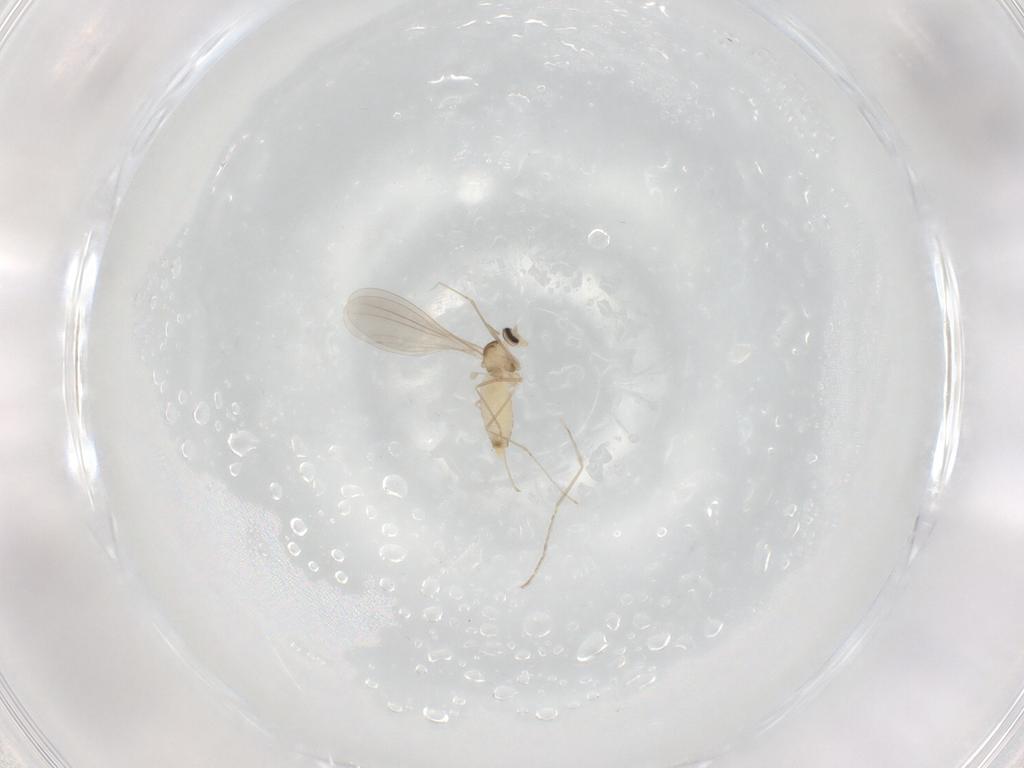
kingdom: Animalia
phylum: Arthropoda
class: Insecta
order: Diptera
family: Cecidomyiidae
